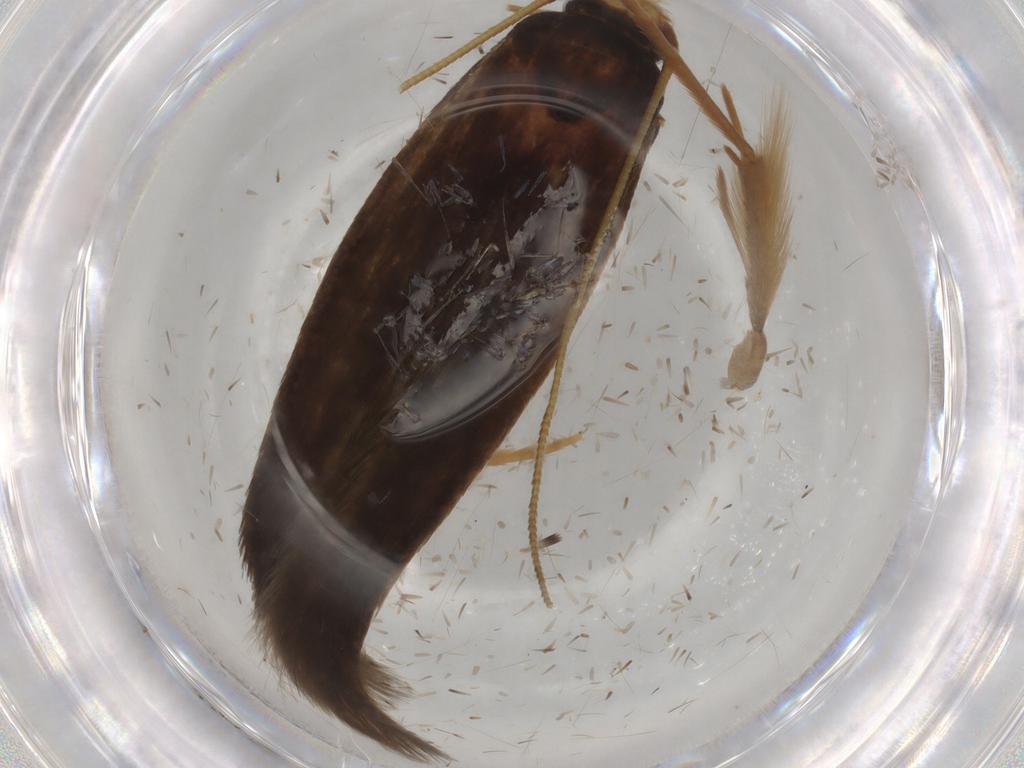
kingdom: Animalia
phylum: Arthropoda
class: Insecta
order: Lepidoptera
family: Tineidae
